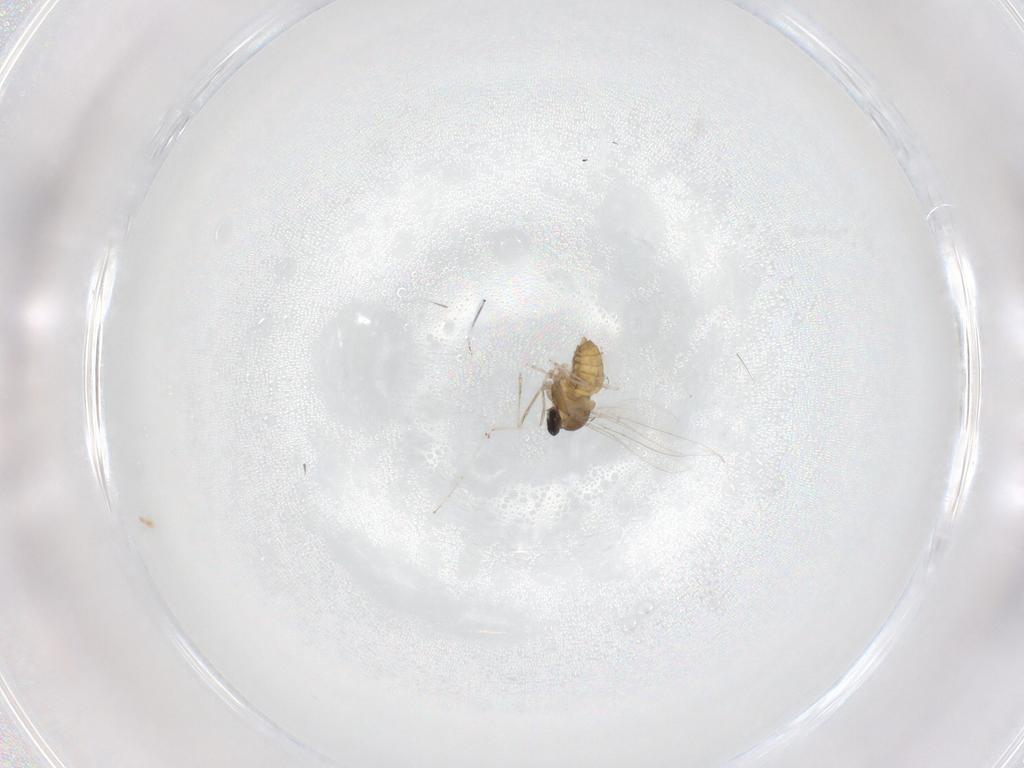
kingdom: Animalia
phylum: Arthropoda
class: Insecta
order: Diptera
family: Cecidomyiidae
